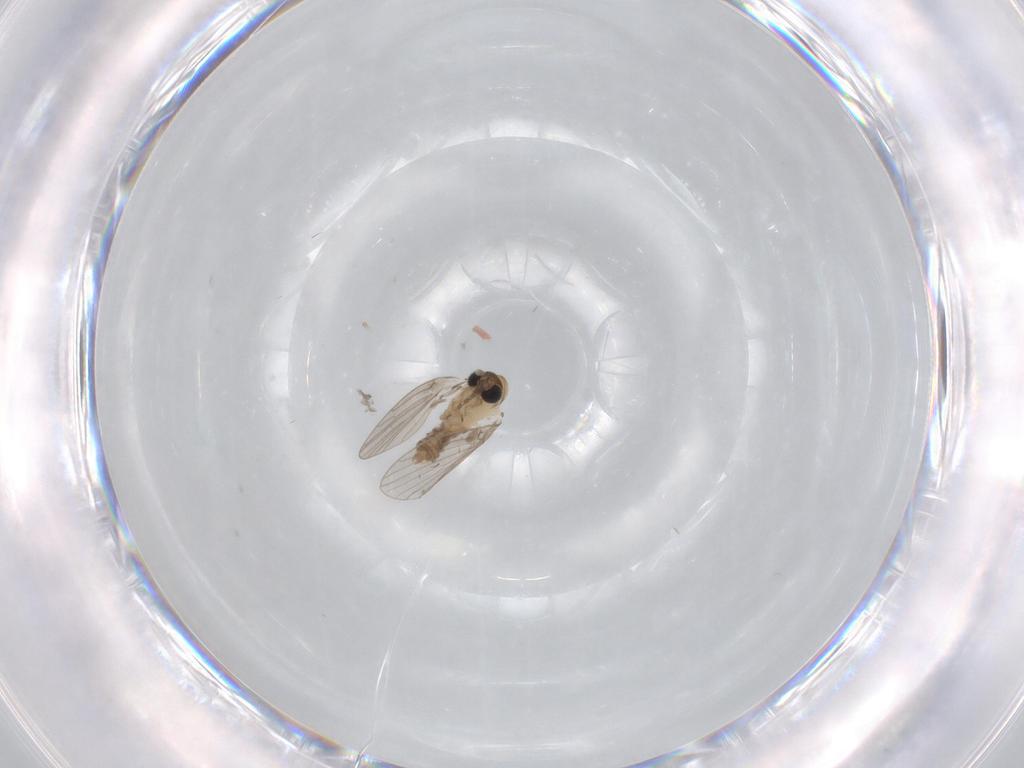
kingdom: Animalia
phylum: Arthropoda
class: Insecta
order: Diptera
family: Psychodidae
